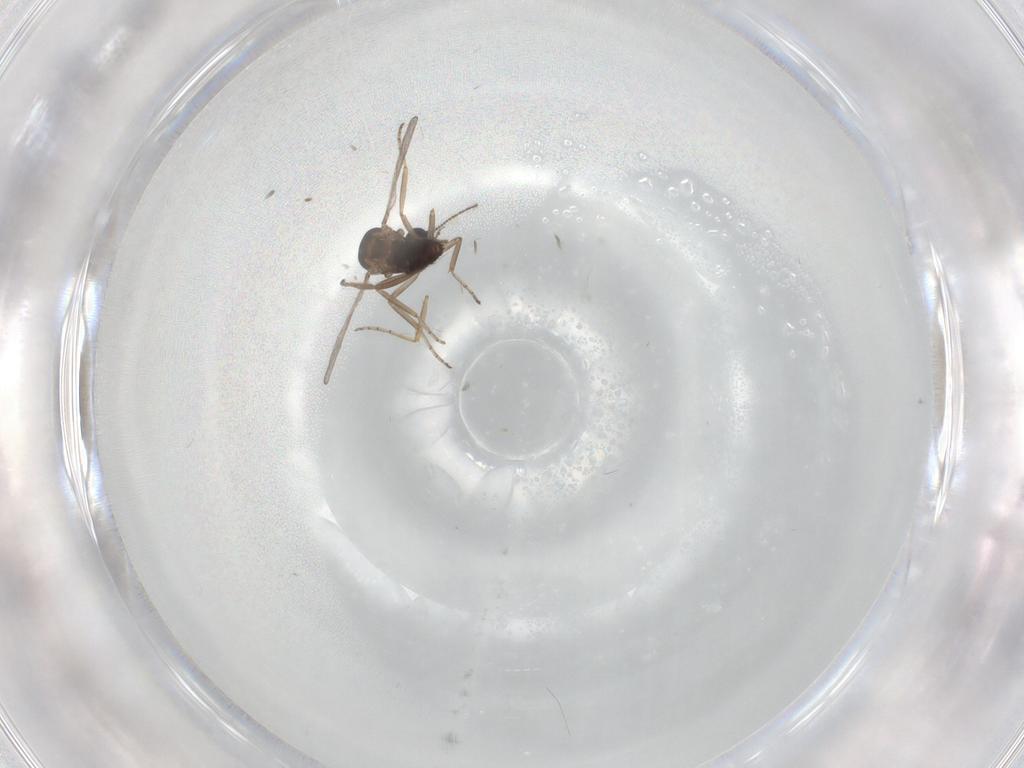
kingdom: Animalia
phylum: Arthropoda
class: Insecta
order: Diptera
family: Ceratopogonidae
